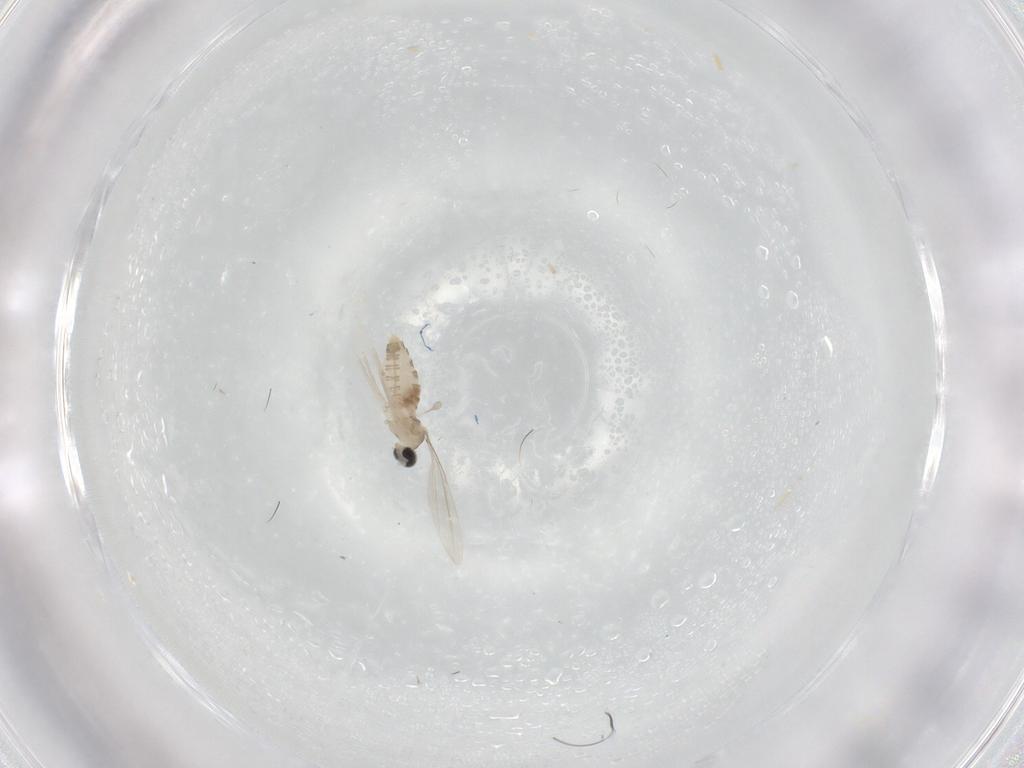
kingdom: Animalia
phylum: Arthropoda
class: Insecta
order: Diptera
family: Cecidomyiidae
